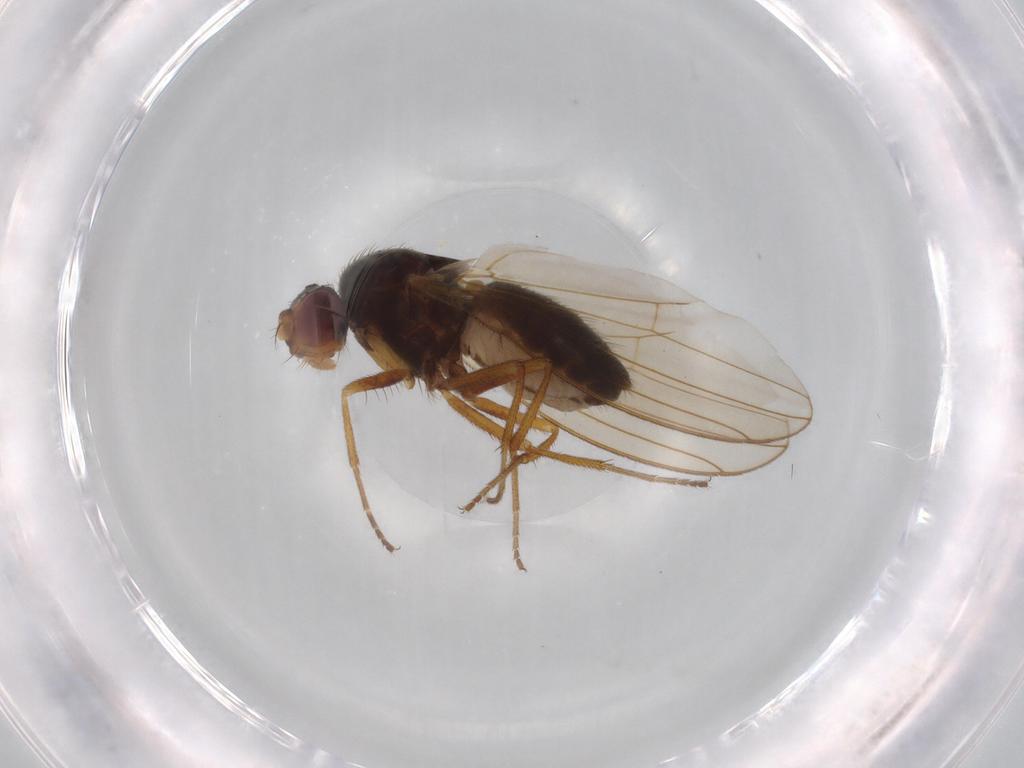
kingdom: Animalia
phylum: Arthropoda
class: Insecta
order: Diptera
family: Drosophilidae
